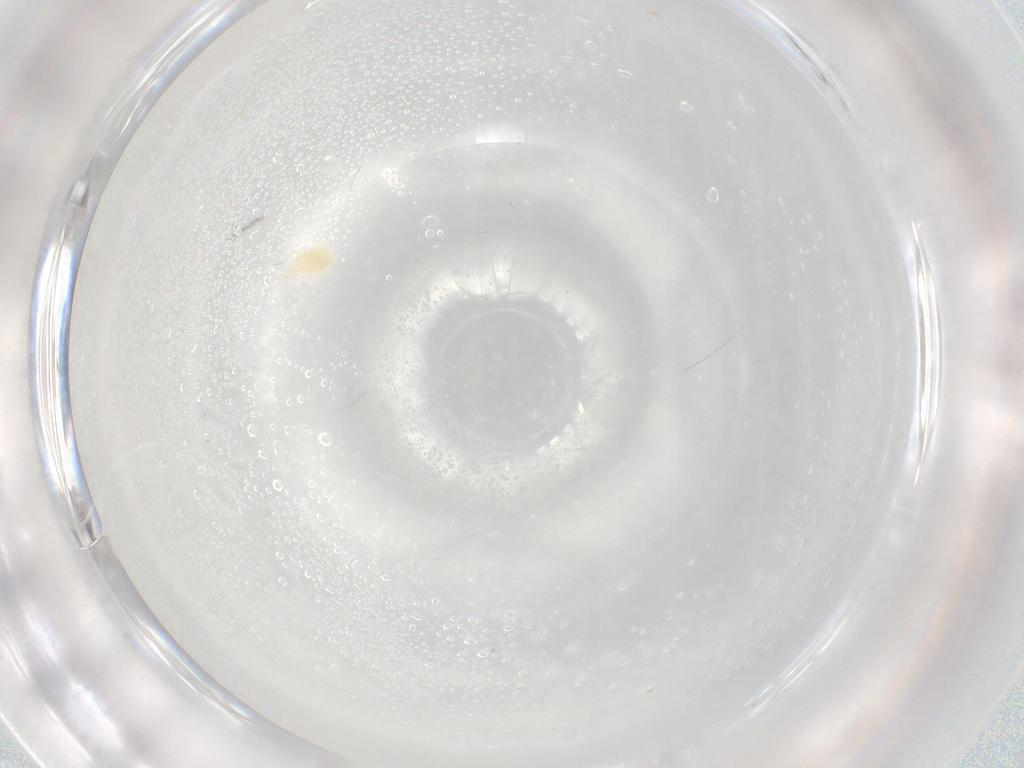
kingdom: Animalia
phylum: Arthropoda
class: Arachnida
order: Trombidiformes
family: Eupodidae
